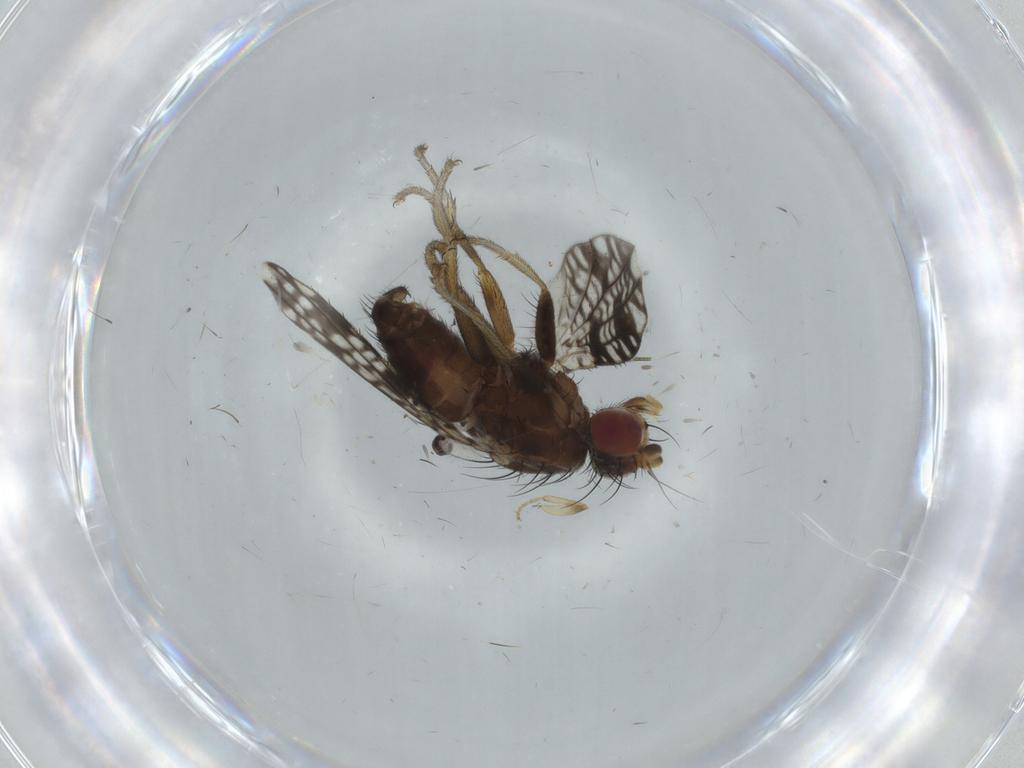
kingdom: Animalia
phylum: Arthropoda
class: Insecta
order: Diptera
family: Tephritidae
